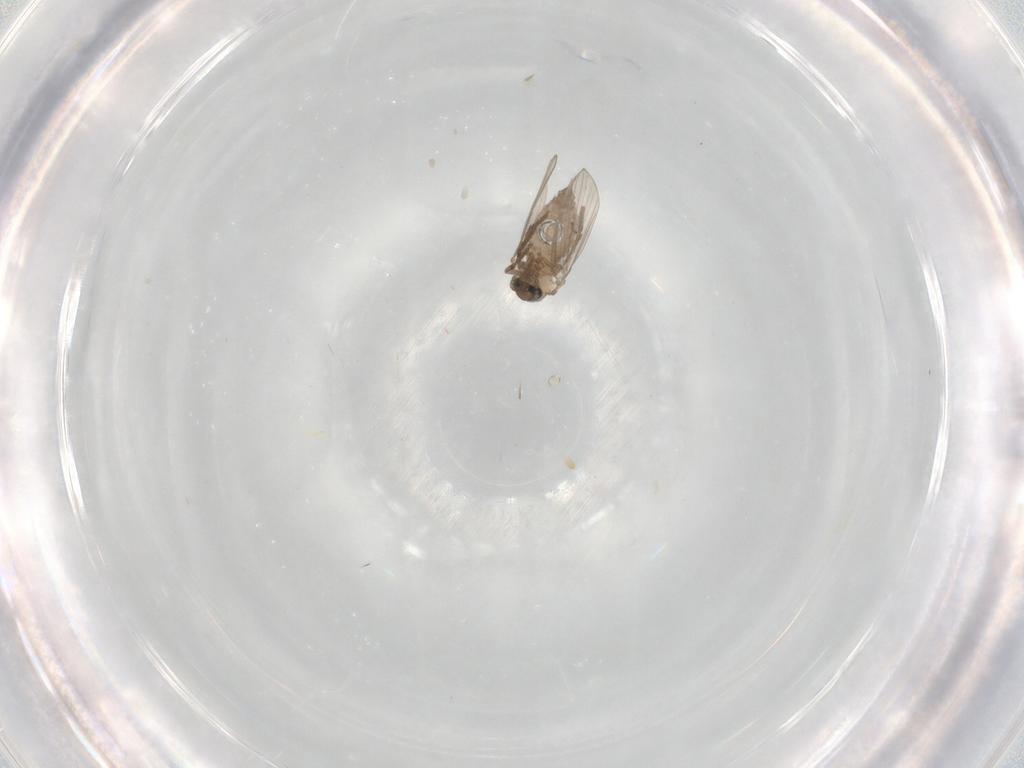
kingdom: Animalia
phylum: Arthropoda
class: Insecta
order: Diptera
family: Psychodidae
